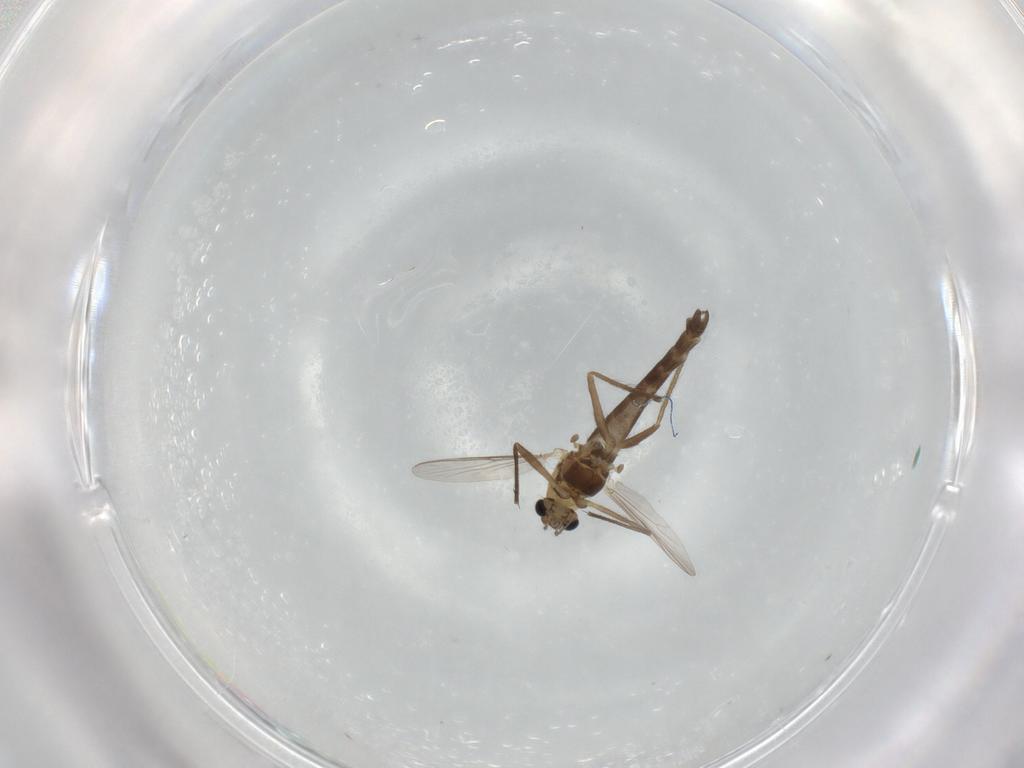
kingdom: Animalia
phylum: Arthropoda
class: Insecta
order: Diptera
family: Chironomidae
